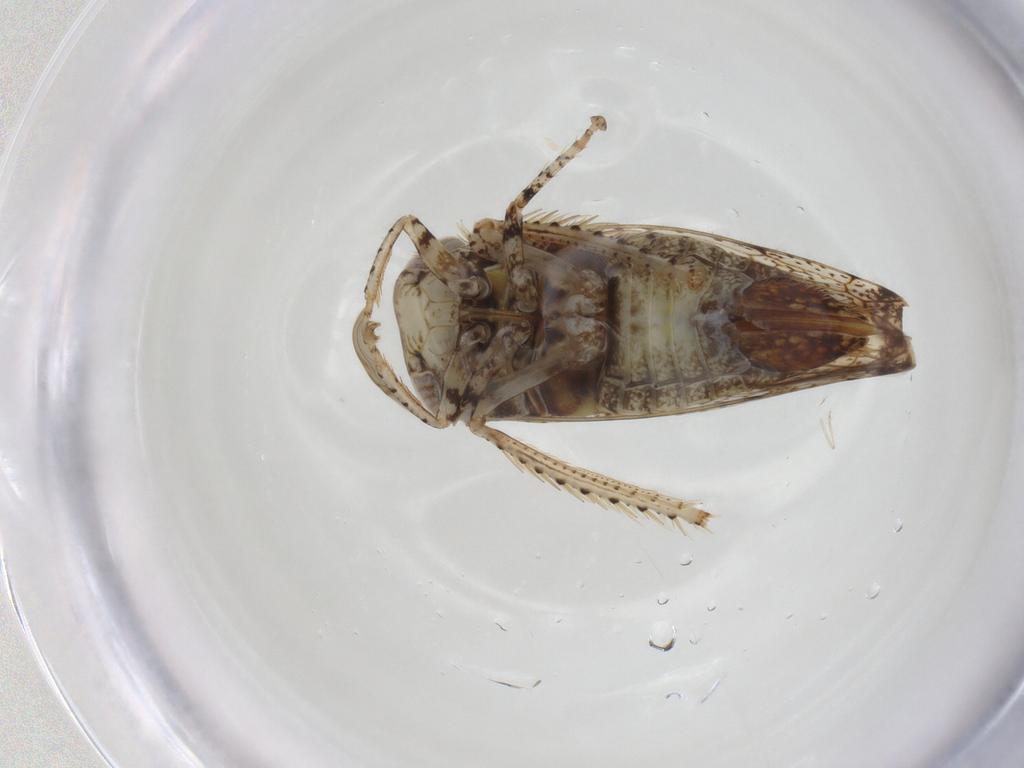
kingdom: Animalia
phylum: Arthropoda
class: Insecta
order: Hemiptera
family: Cicadellidae
